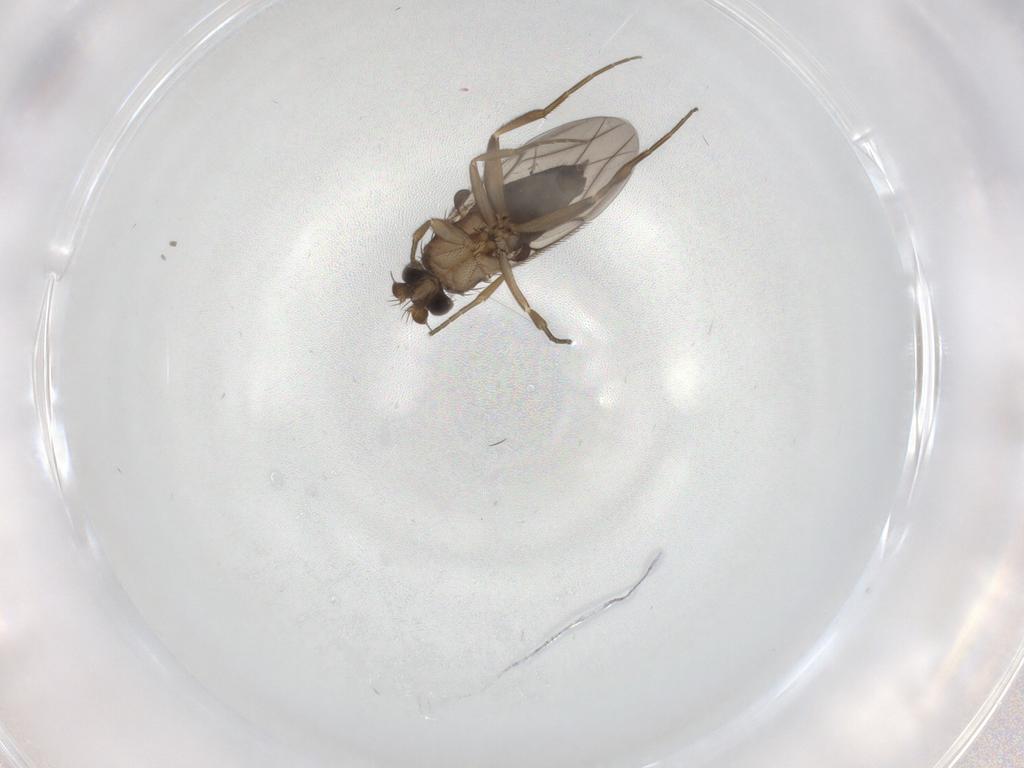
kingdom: Animalia
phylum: Arthropoda
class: Insecta
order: Diptera
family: Phoridae
